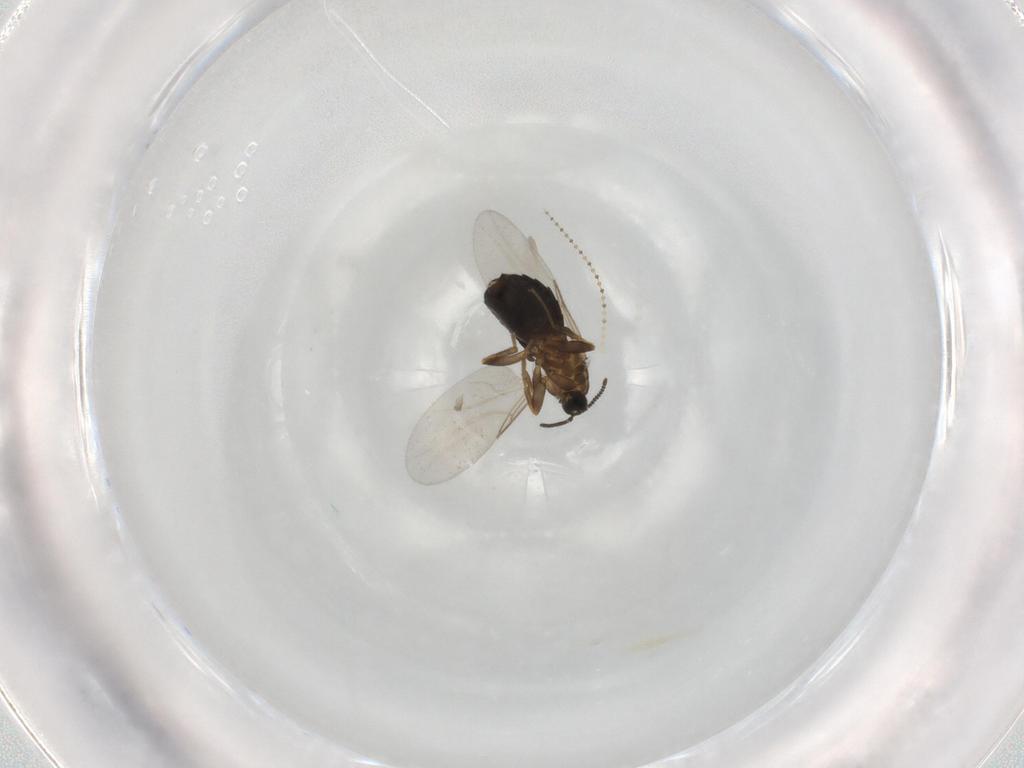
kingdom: Animalia
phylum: Arthropoda
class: Insecta
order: Diptera
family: Scatopsidae
